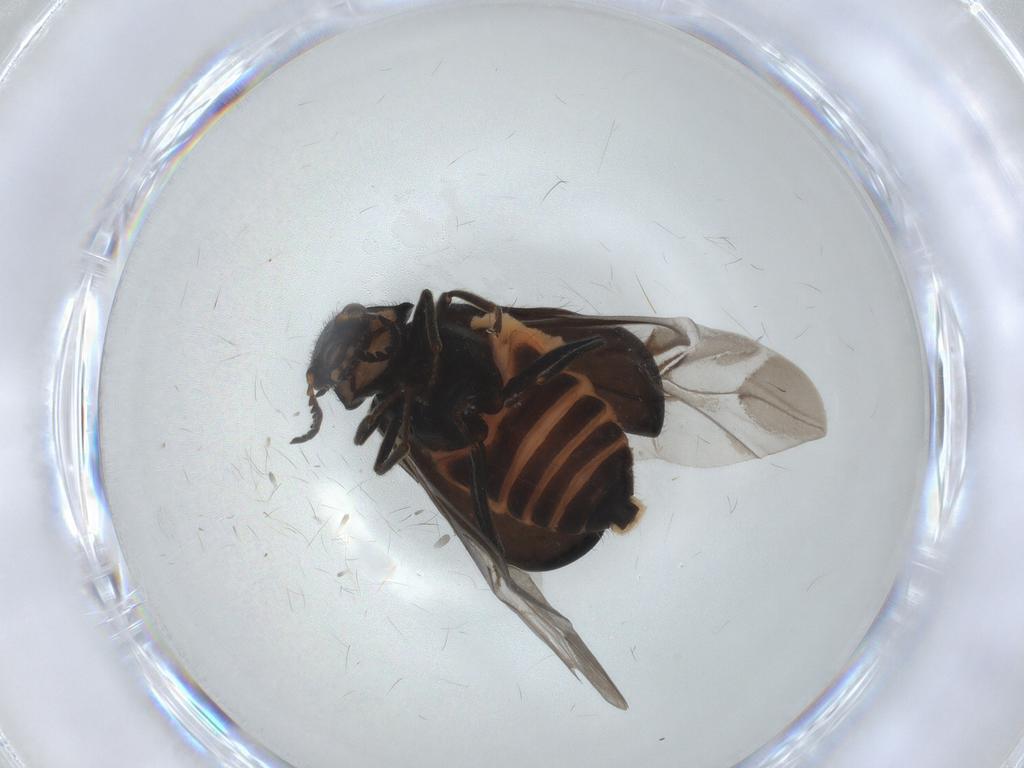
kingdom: Animalia
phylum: Arthropoda
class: Insecta
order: Coleoptera
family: Melyridae
